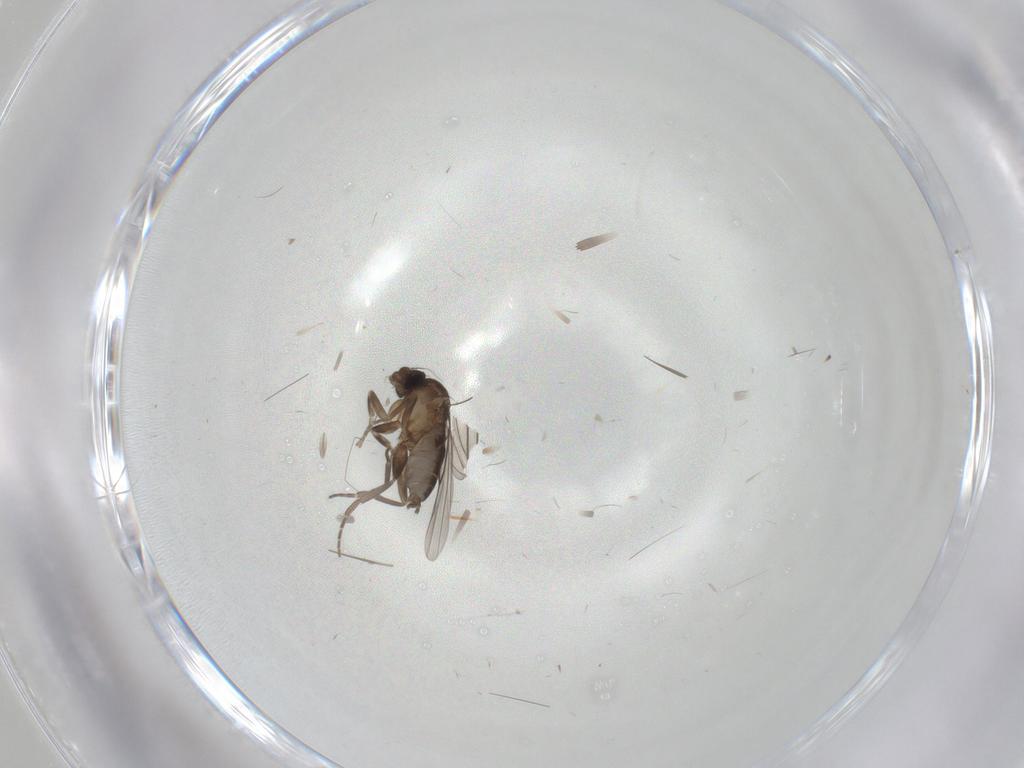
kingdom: Animalia
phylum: Arthropoda
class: Insecta
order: Diptera
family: Phoridae
